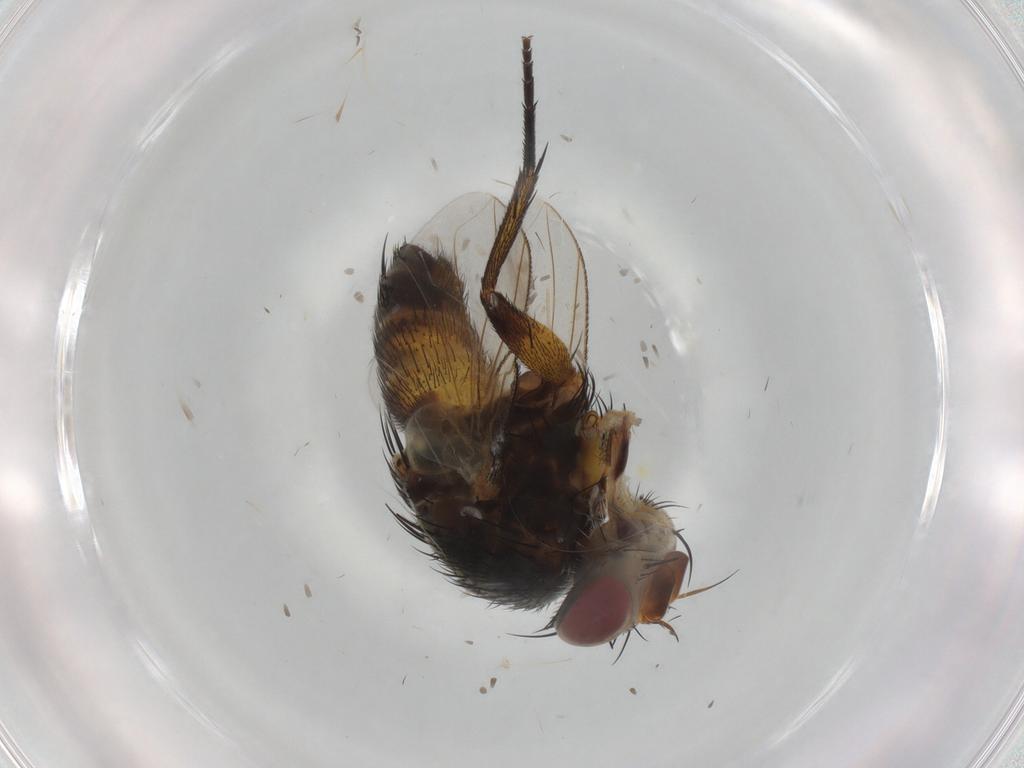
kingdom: Animalia
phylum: Arthropoda
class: Insecta
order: Diptera
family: Tachinidae
